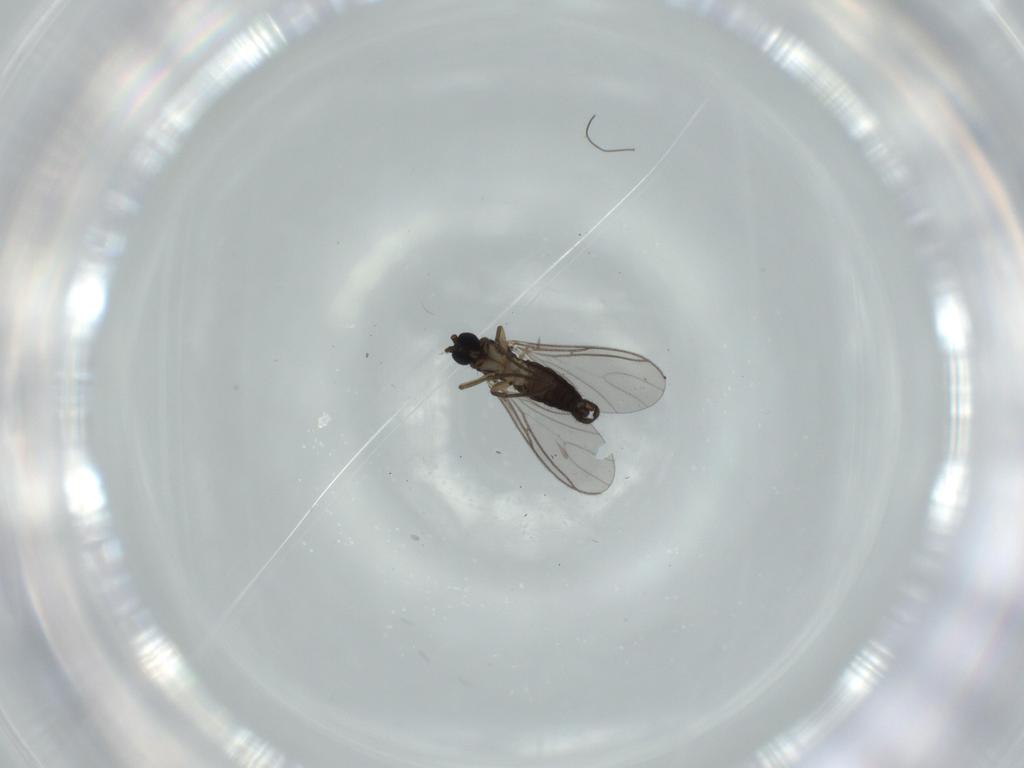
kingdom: Animalia
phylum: Arthropoda
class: Insecta
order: Diptera
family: Sciaridae
